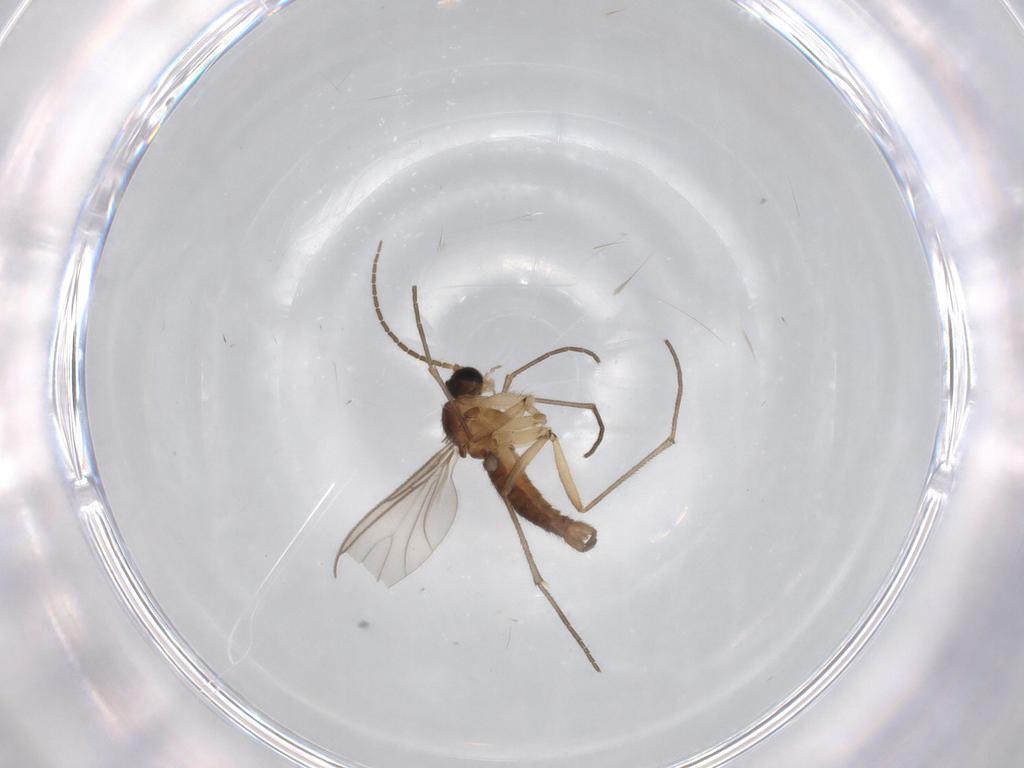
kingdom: Animalia
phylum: Arthropoda
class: Insecta
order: Diptera
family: Sciaridae
